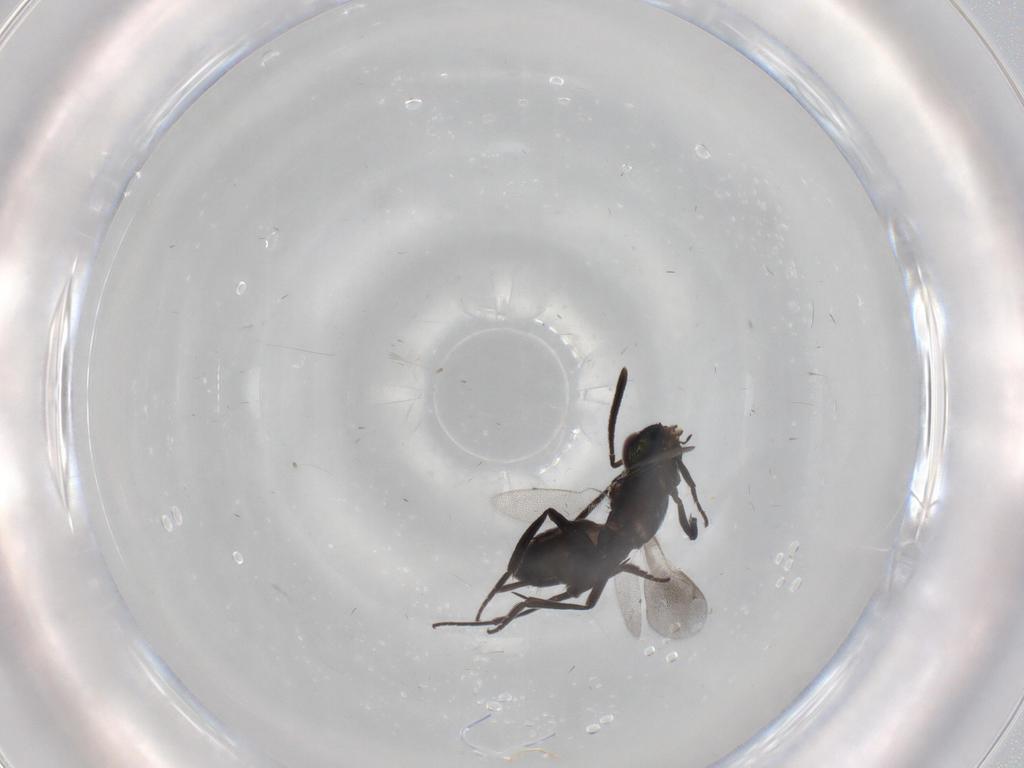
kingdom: Animalia
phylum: Arthropoda
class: Insecta
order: Hymenoptera
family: Eupelmidae
